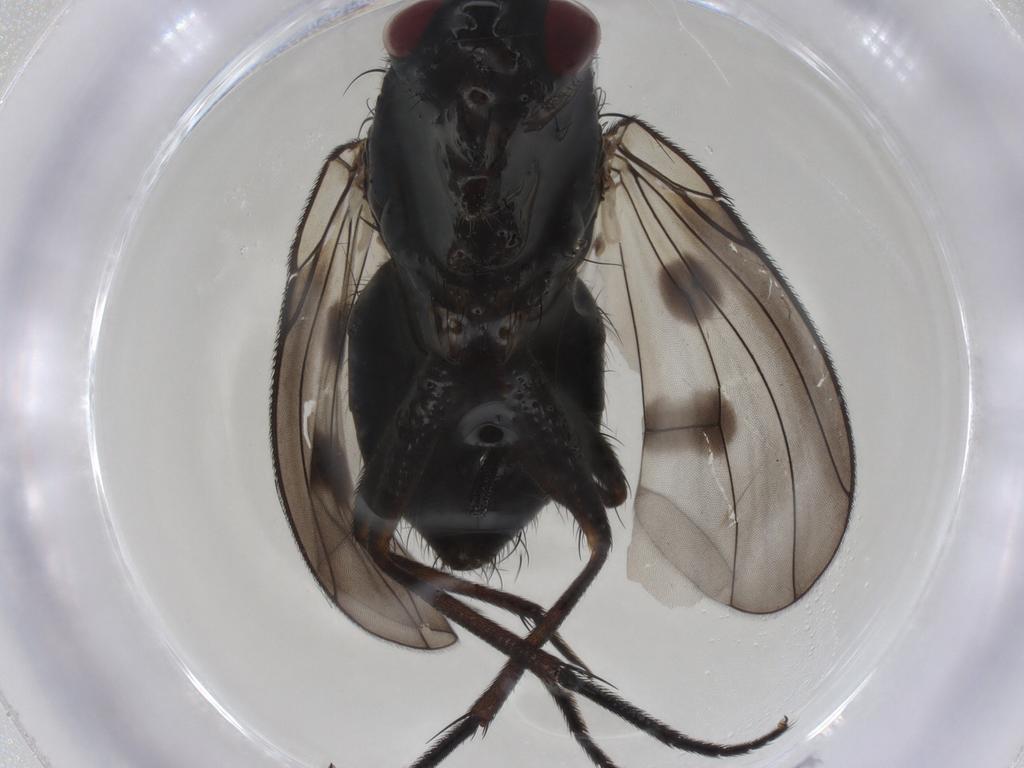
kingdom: Animalia
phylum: Arthropoda
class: Insecta
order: Diptera
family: Muscidae
